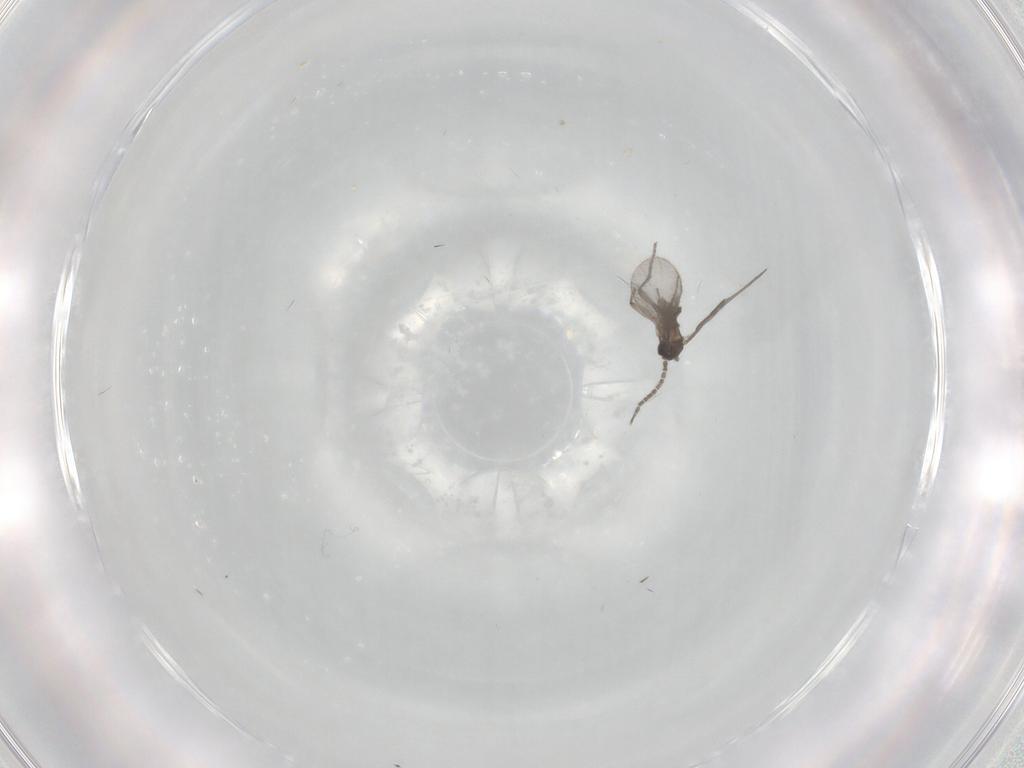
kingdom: Animalia
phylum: Arthropoda
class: Insecta
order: Diptera
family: Sciaridae
